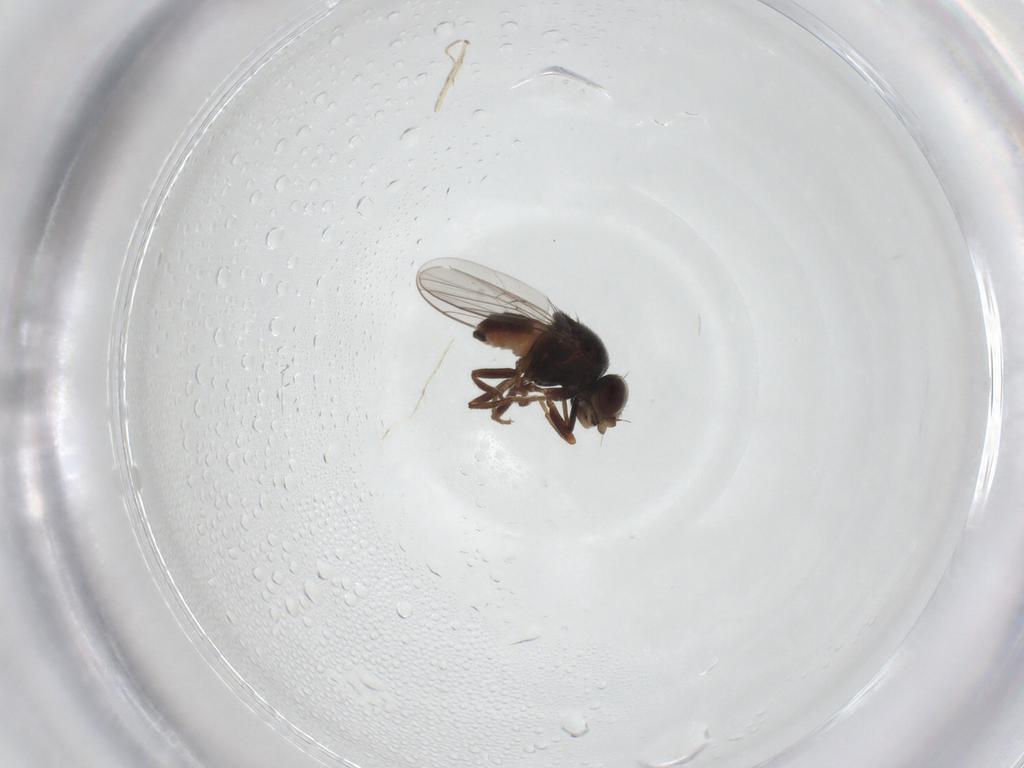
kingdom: Animalia
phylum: Arthropoda
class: Insecta
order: Diptera
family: Chloropidae
